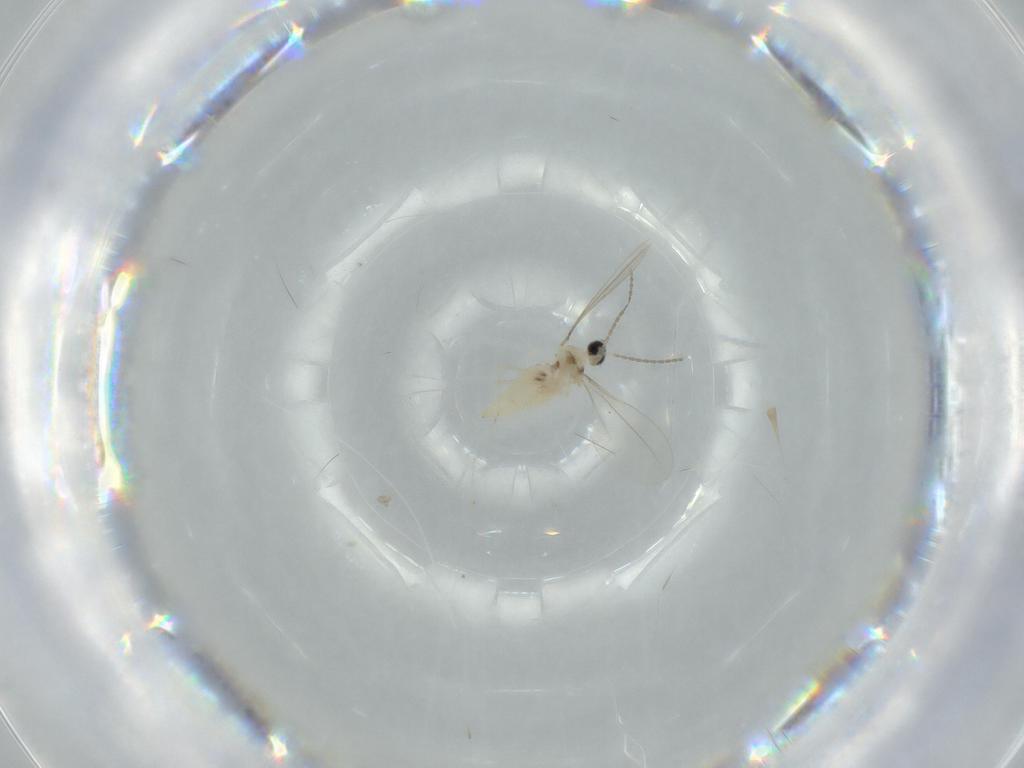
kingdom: Animalia
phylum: Arthropoda
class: Insecta
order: Diptera
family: Cecidomyiidae
